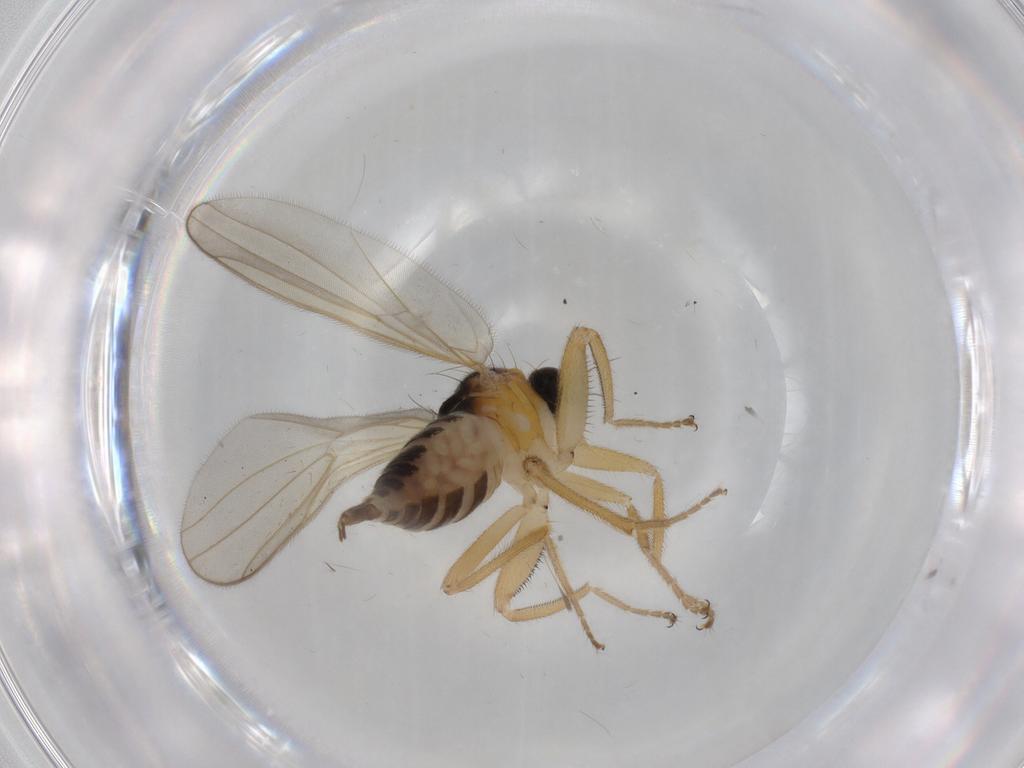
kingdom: Animalia
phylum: Arthropoda
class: Insecta
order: Diptera
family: Hybotidae
